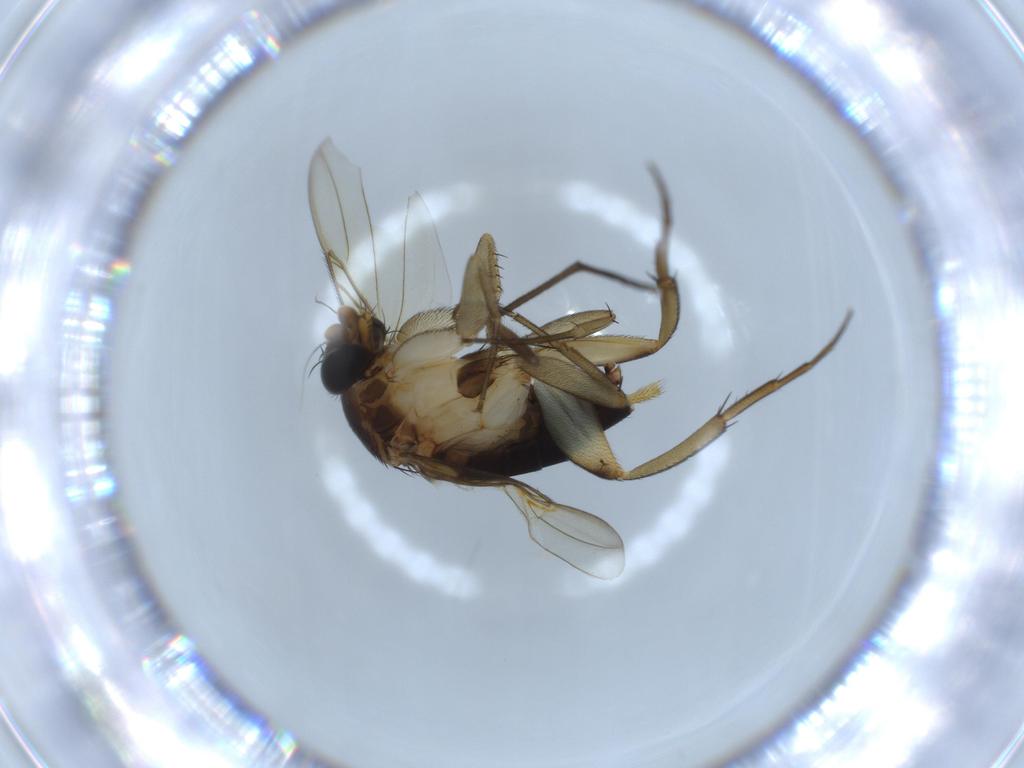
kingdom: Animalia
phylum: Arthropoda
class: Insecta
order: Diptera
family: Phoridae
